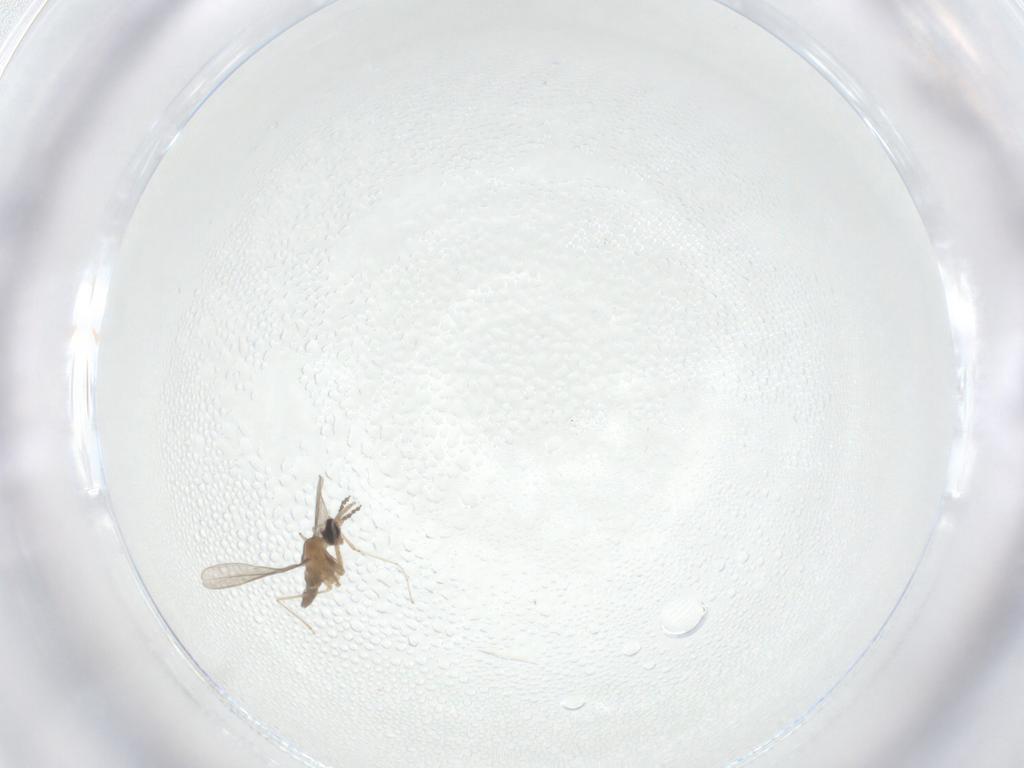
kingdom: Animalia
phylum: Arthropoda
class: Insecta
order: Diptera
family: Chironomidae
